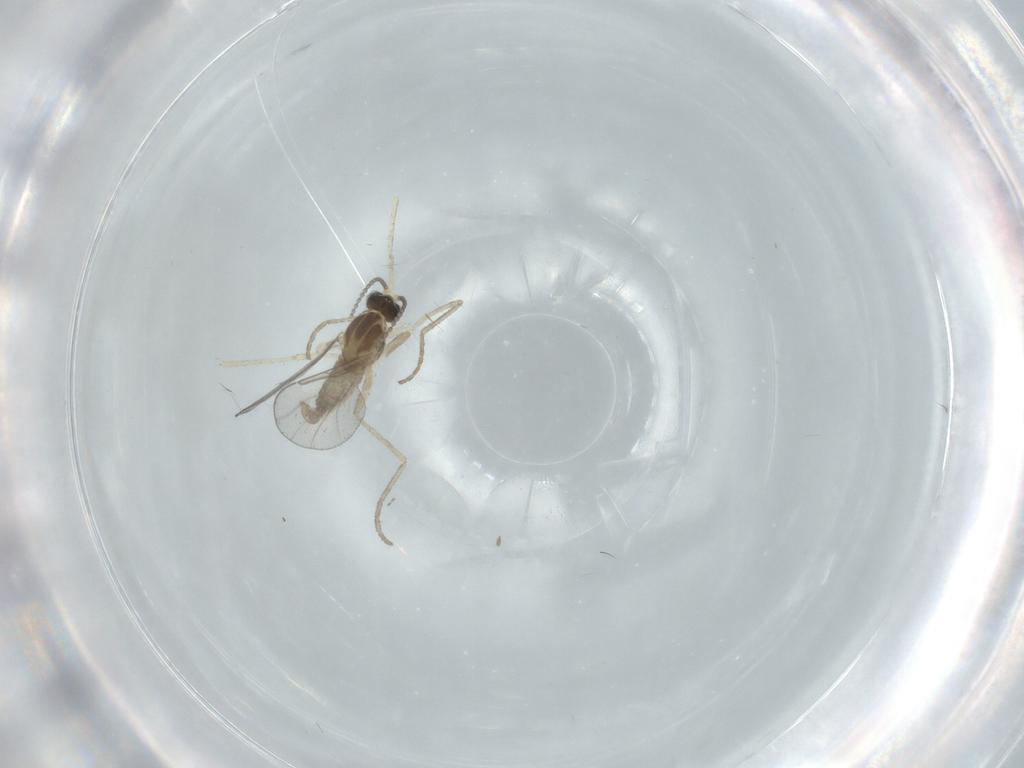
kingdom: Animalia
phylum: Arthropoda
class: Insecta
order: Diptera
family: Cecidomyiidae
